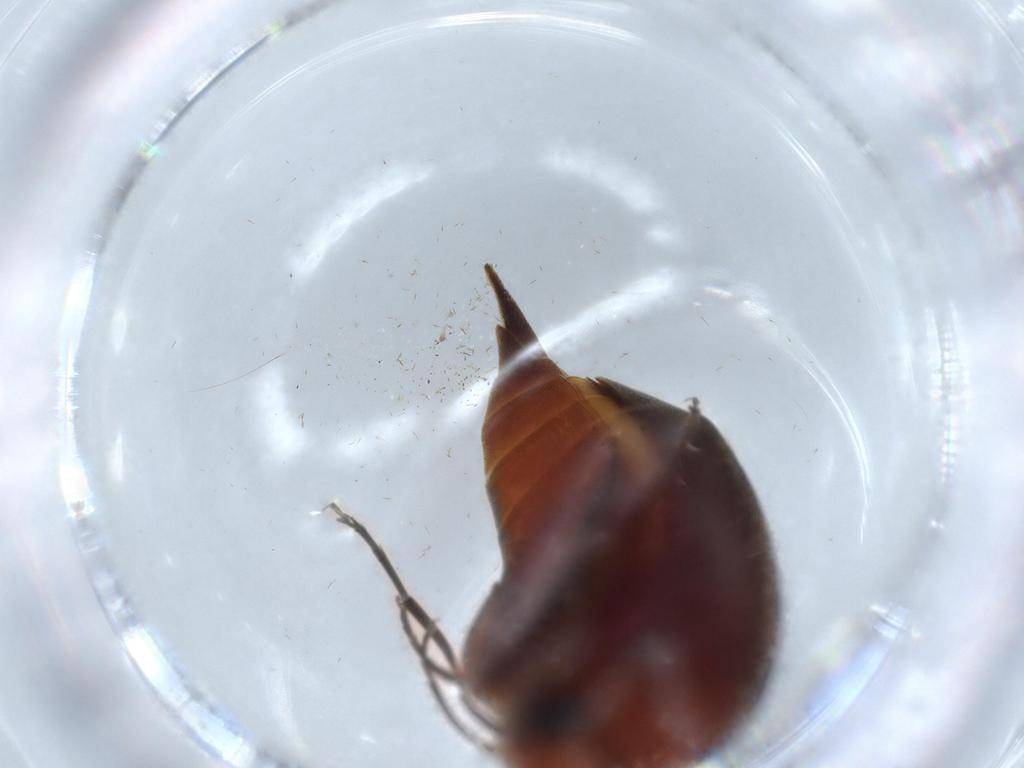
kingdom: Animalia
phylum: Arthropoda
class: Insecta
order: Coleoptera
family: Mordellidae
